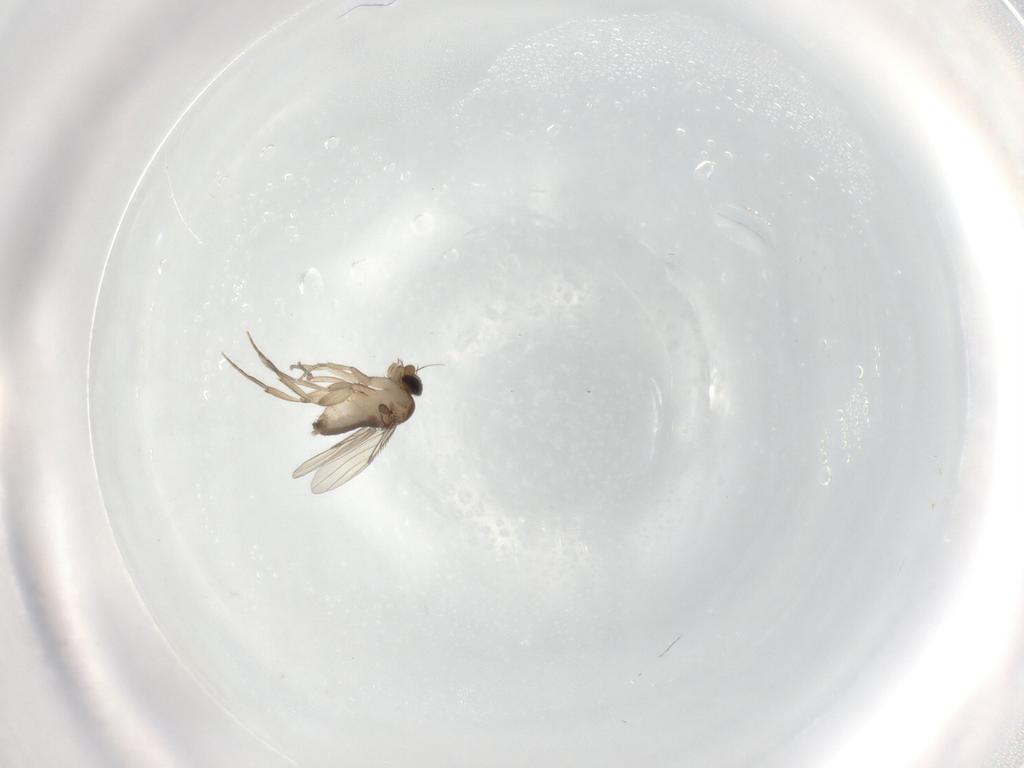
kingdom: Animalia
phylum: Arthropoda
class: Insecta
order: Diptera
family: Phoridae
